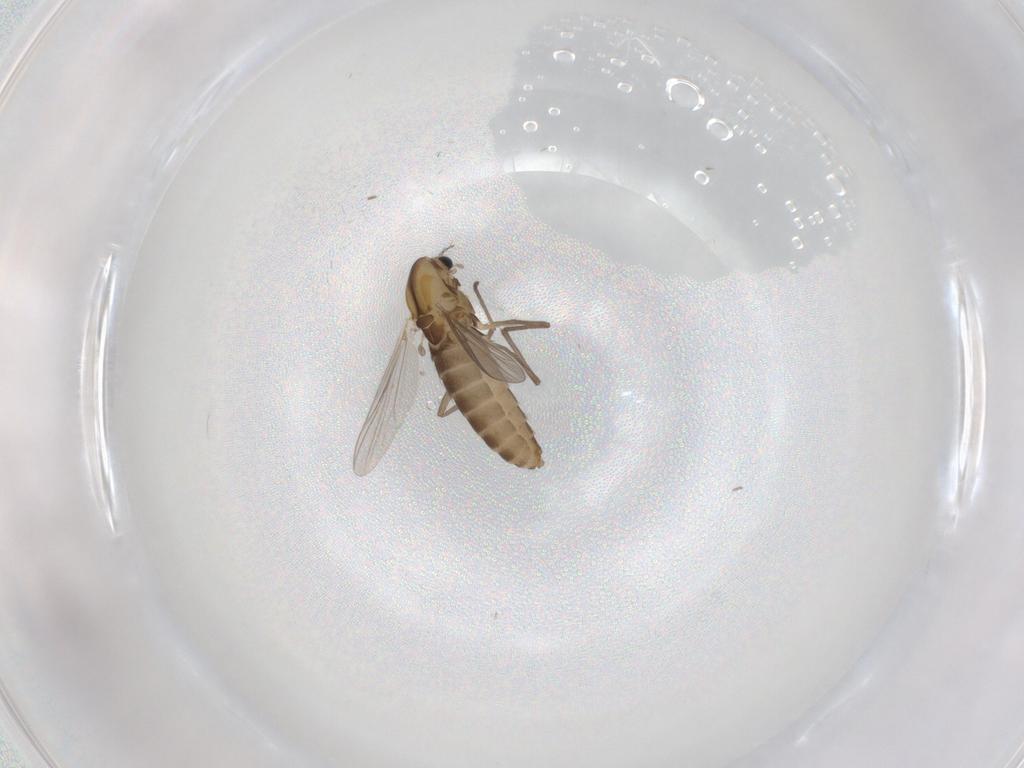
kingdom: Animalia
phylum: Arthropoda
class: Insecta
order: Diptera
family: Chironomidae
